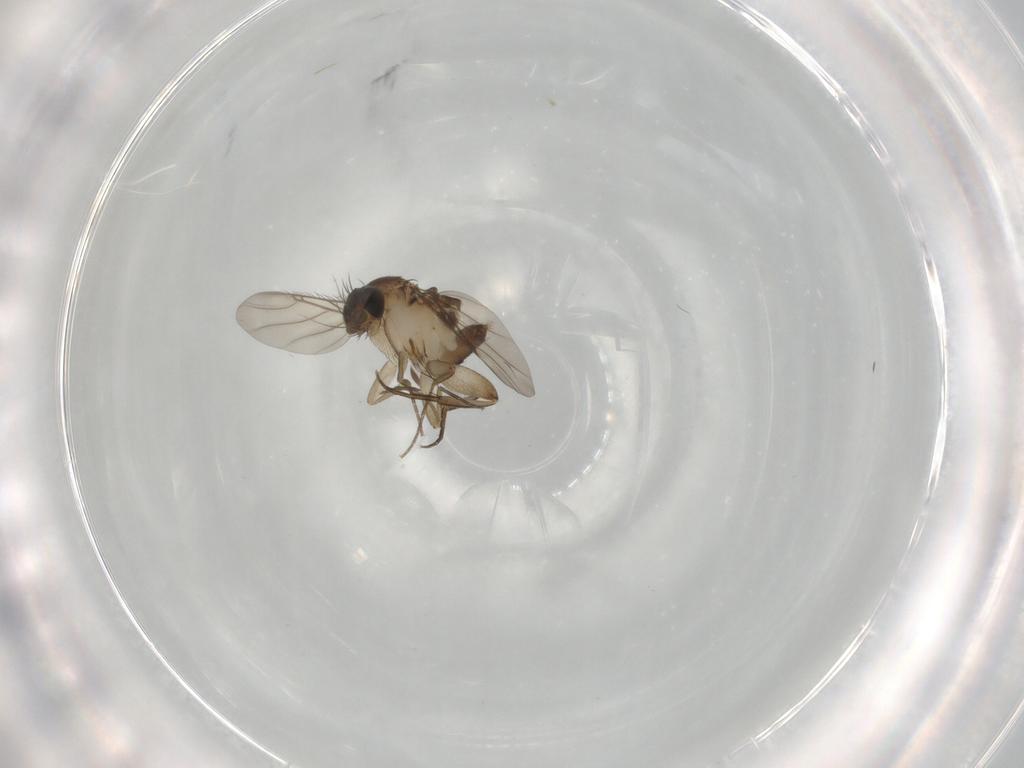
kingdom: Animalia
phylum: Arthropoda
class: Insecta
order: Diptera
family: Phoridae
